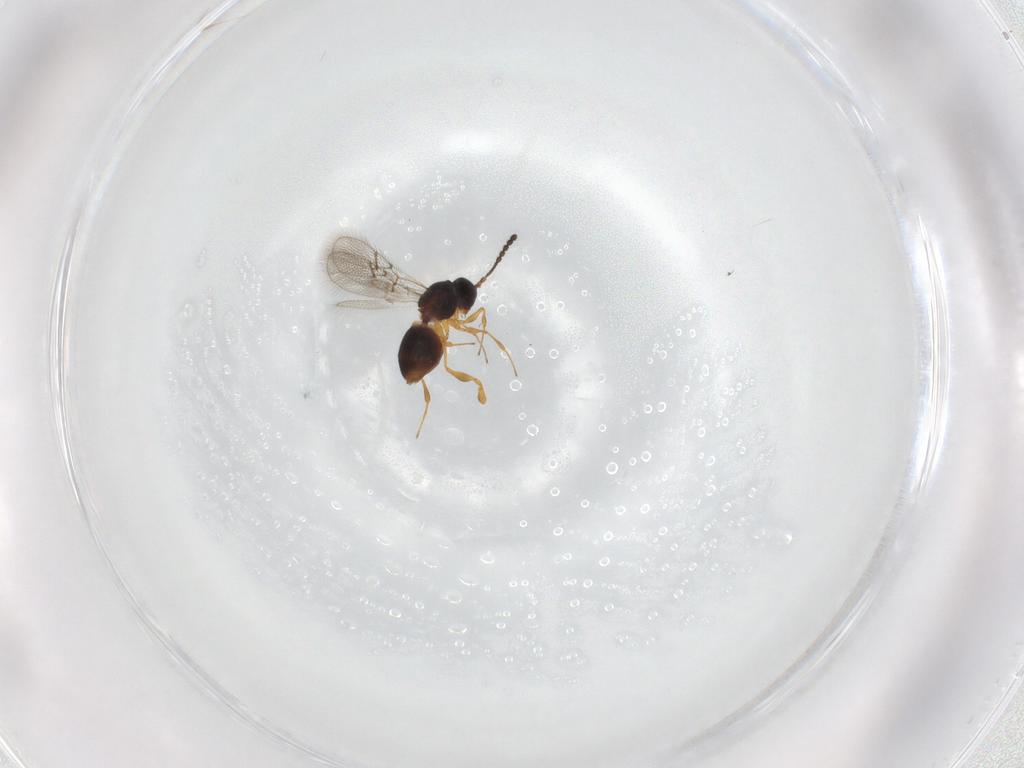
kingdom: Animalia
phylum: Arthropoda
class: Insecta
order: Hymenoptera
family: Figitidae
